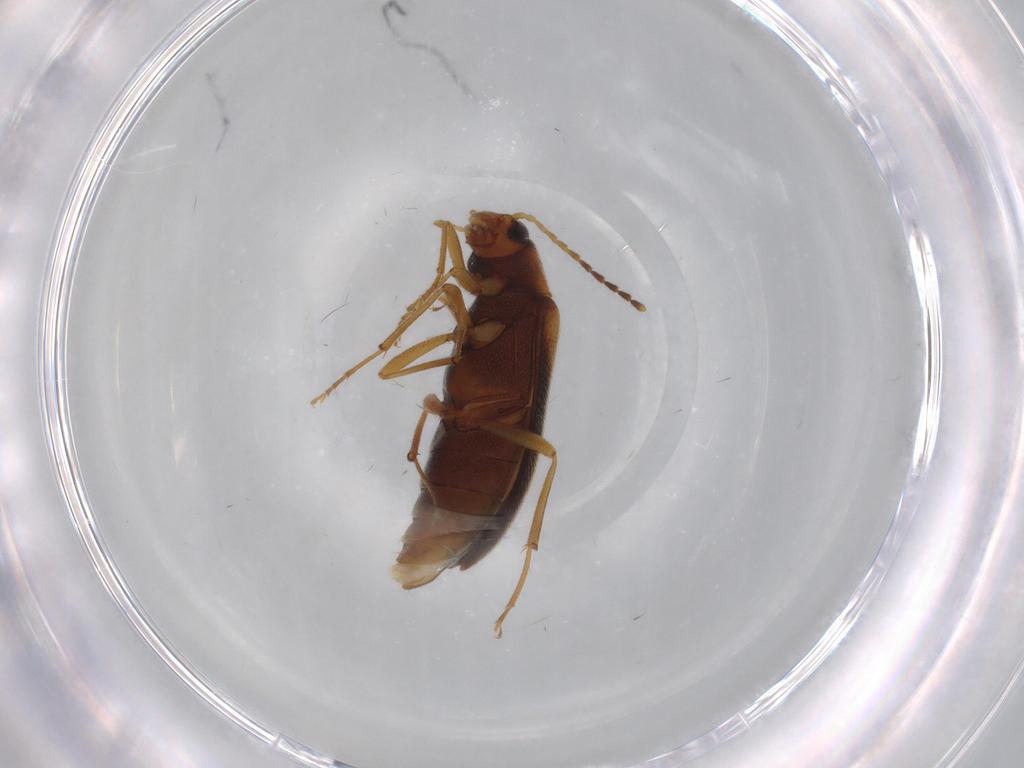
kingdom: Animalia
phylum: Arthropoda
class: Insecta
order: Coleoptera
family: Melandryidae
